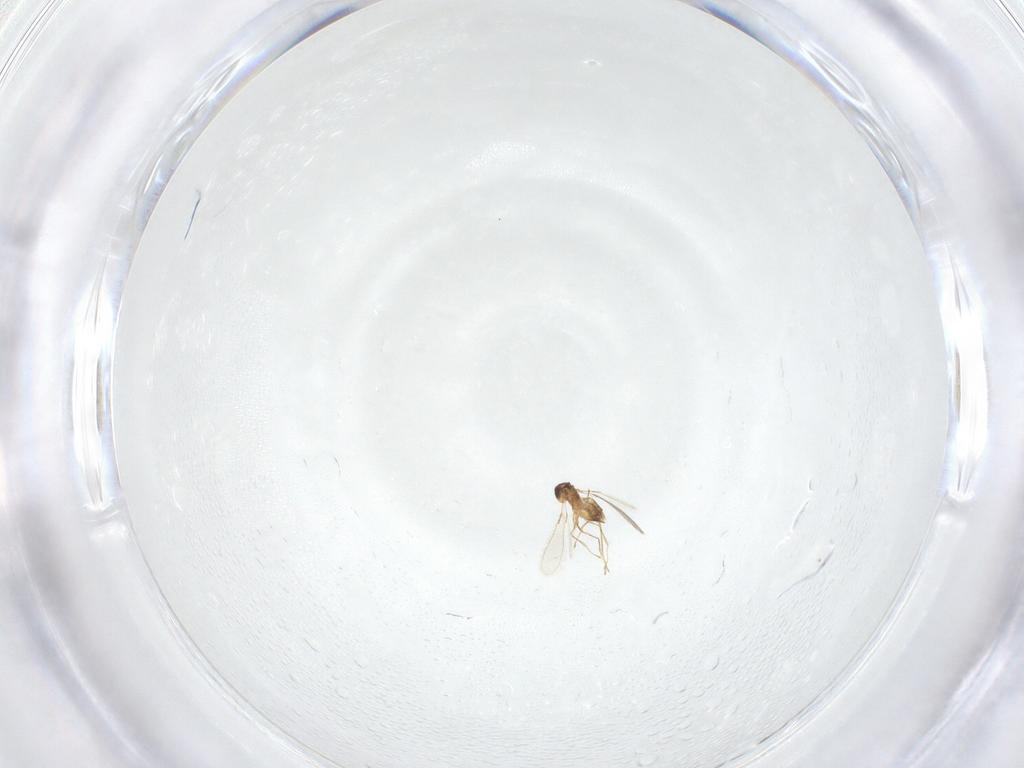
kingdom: Animalia
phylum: Arthropoda
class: Insecta
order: Hymenoptera
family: Mymaridae
